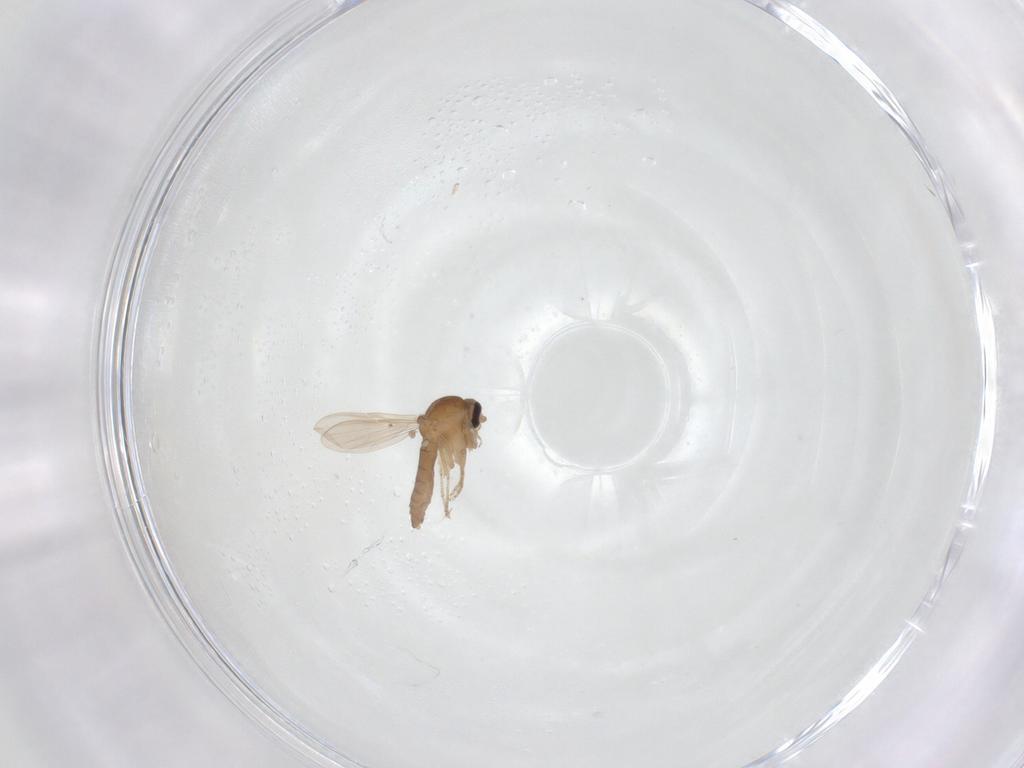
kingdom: Animalia
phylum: Arthropoda
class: Insecta
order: Diptera
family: Ceratopogonidae
